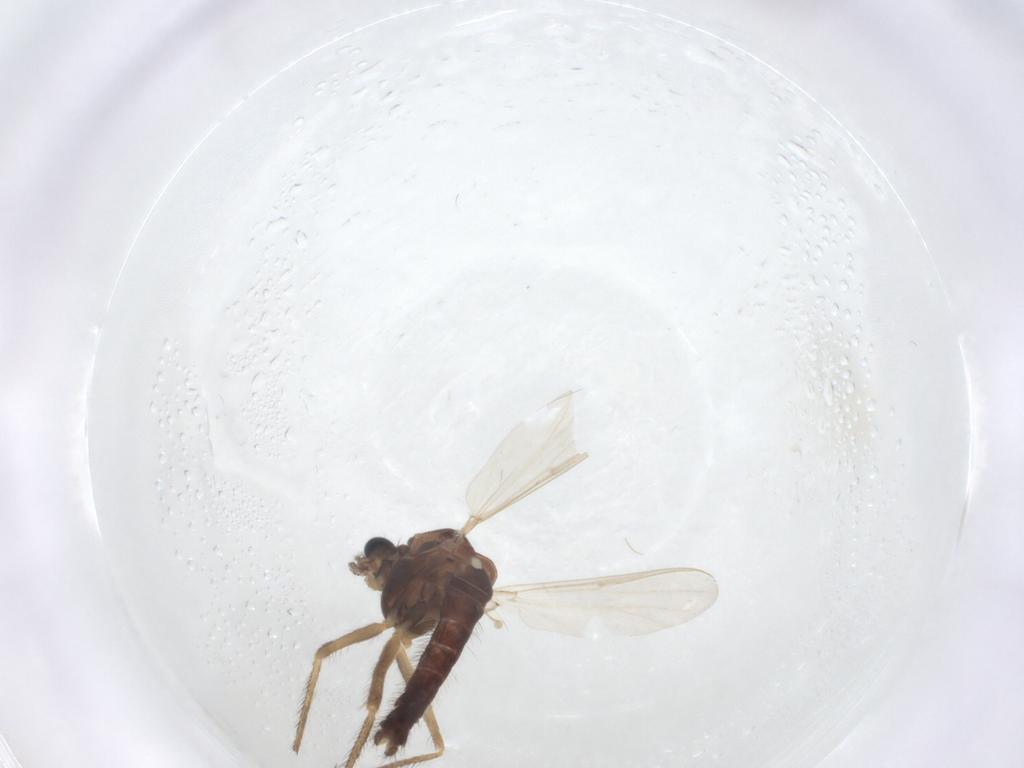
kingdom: Animalia
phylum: Arthropoda
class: Insecta
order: Diptera
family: Chironomidae
